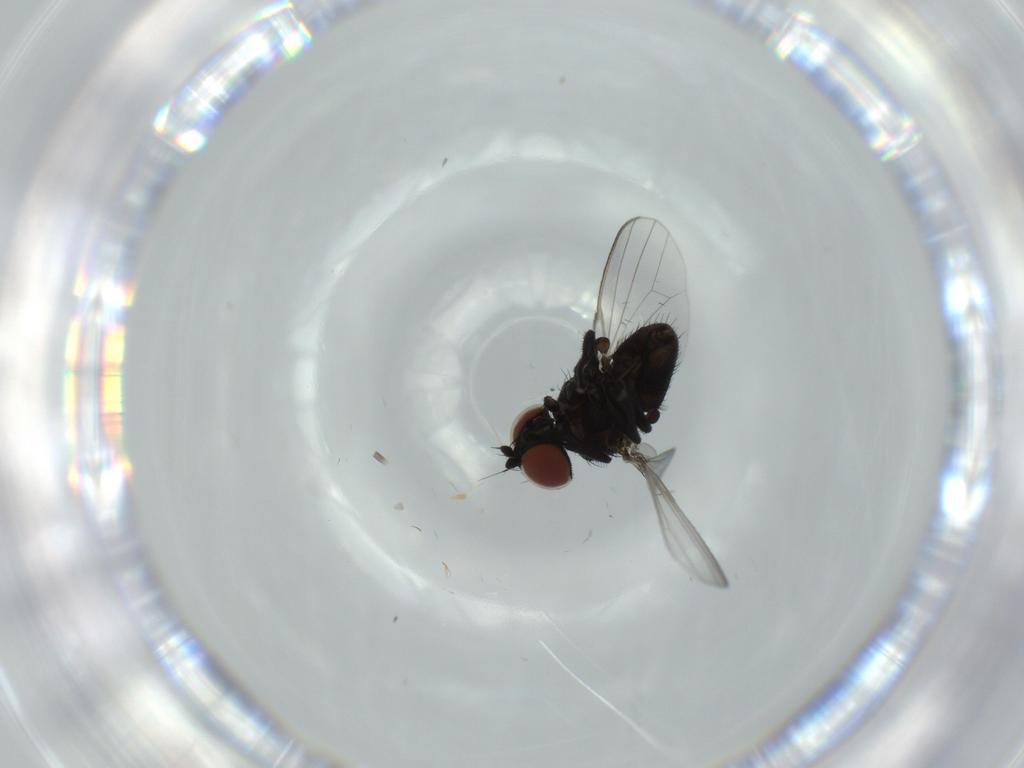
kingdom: Animalia
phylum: Arthropoda
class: Insecta
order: Diptera
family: Milichiidae
